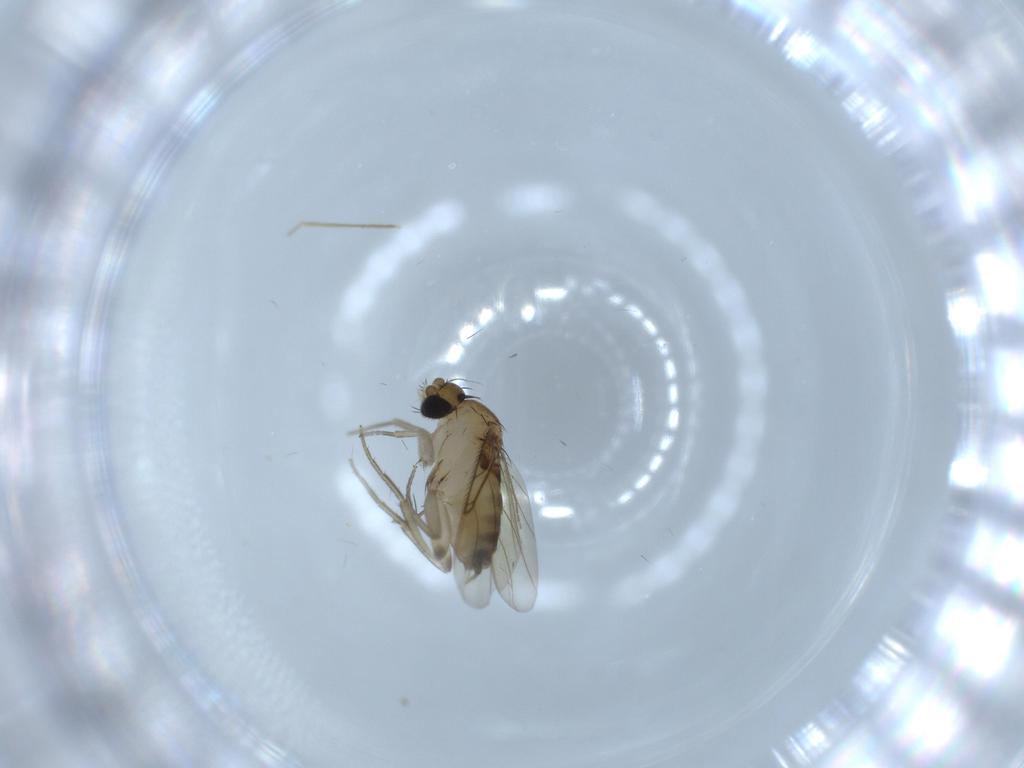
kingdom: Animalia
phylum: Arthropoda
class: Insecta
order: Diptera
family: Phoridae
